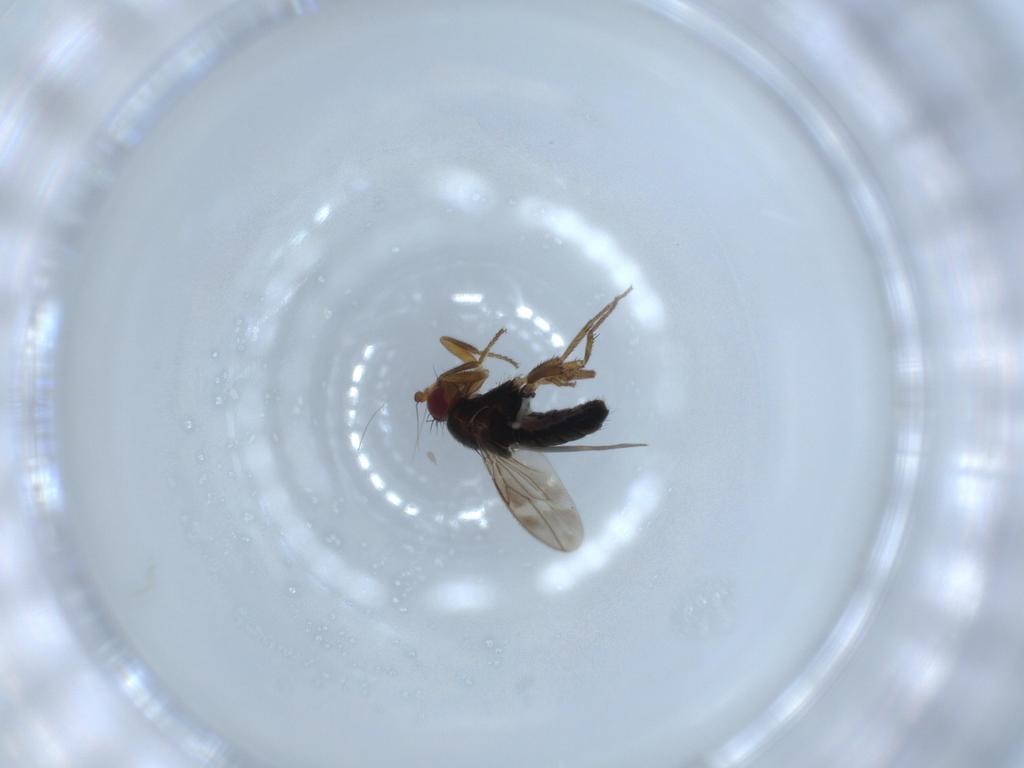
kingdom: Animalia
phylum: Arthropoda
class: Insecta
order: Diptera
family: Sphaeroceridae
